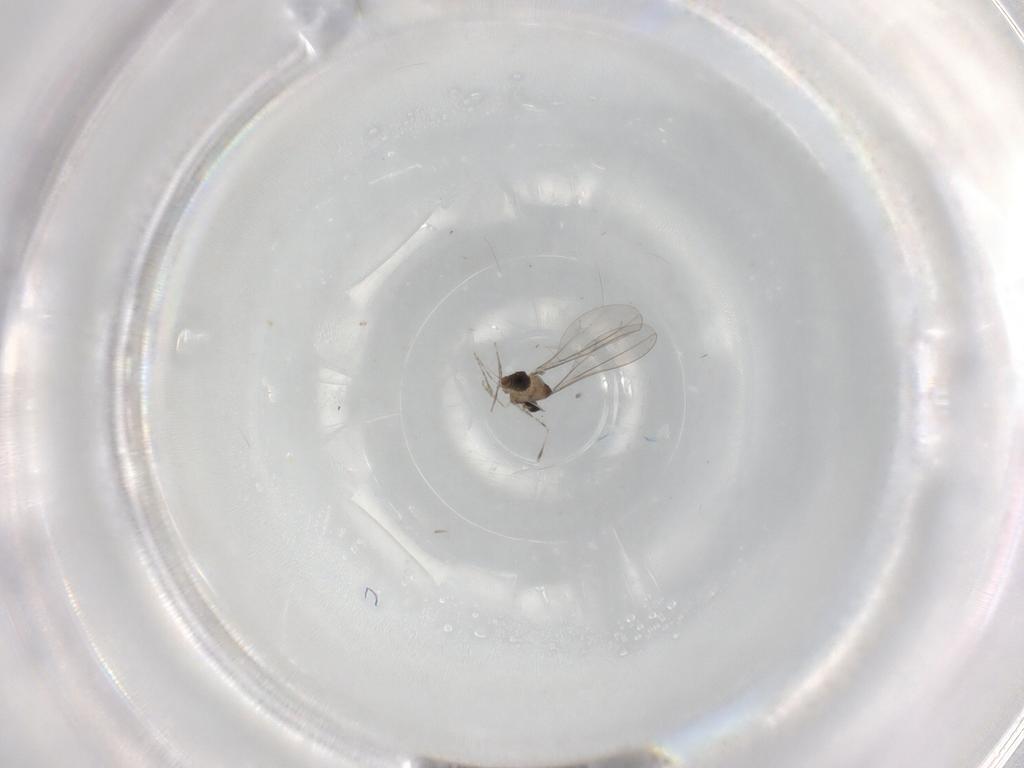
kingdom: Animalia
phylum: Arthropoda
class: Insecta
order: Diptera
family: Cecidomyiidae
